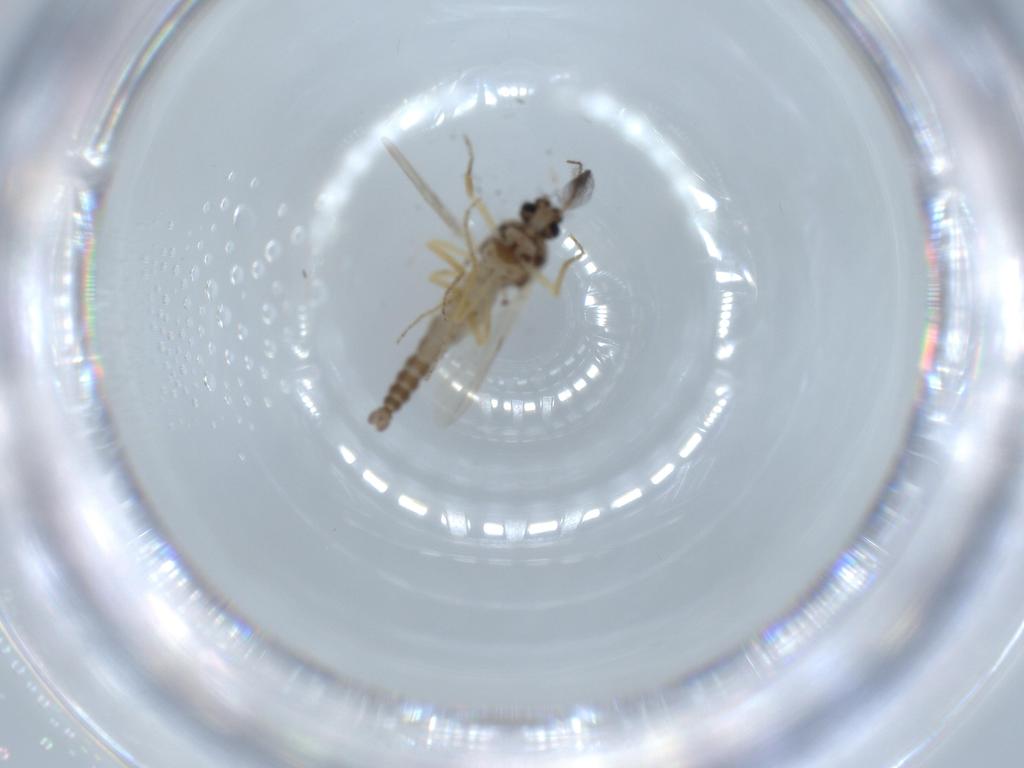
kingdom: Animalia
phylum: Arthropoda
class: Insecta
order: Diptera
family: Ceratopogonidae
